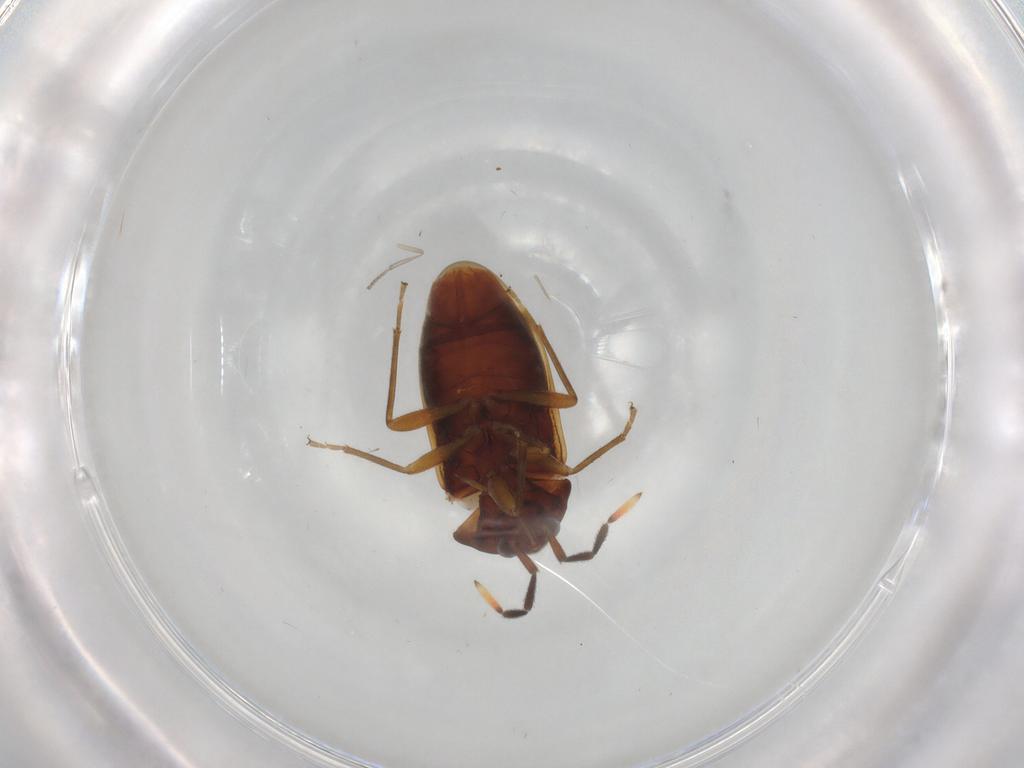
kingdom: Animalia
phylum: Arthropoda
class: Insecta
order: Hemiptera
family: Rhyparochromidae
